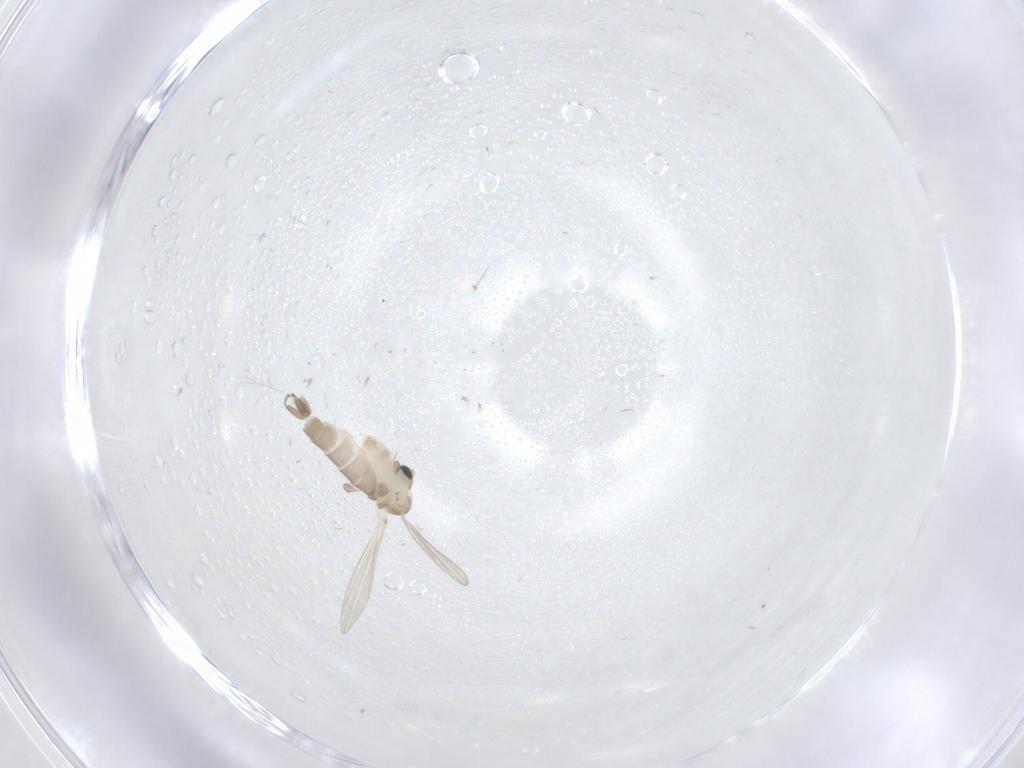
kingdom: Animalia
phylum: Arthropoda
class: Insecta
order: Diptera
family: Psychodidae
